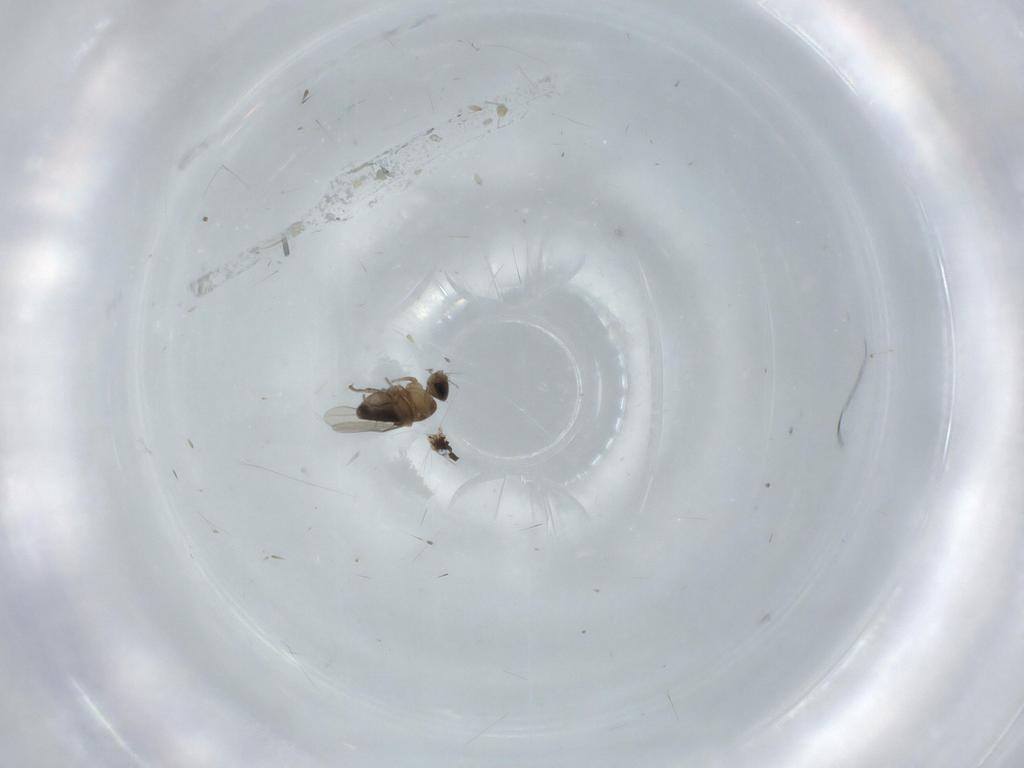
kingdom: Animalia
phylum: Arthropoda
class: Insecta
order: Diptera
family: Phoridae
